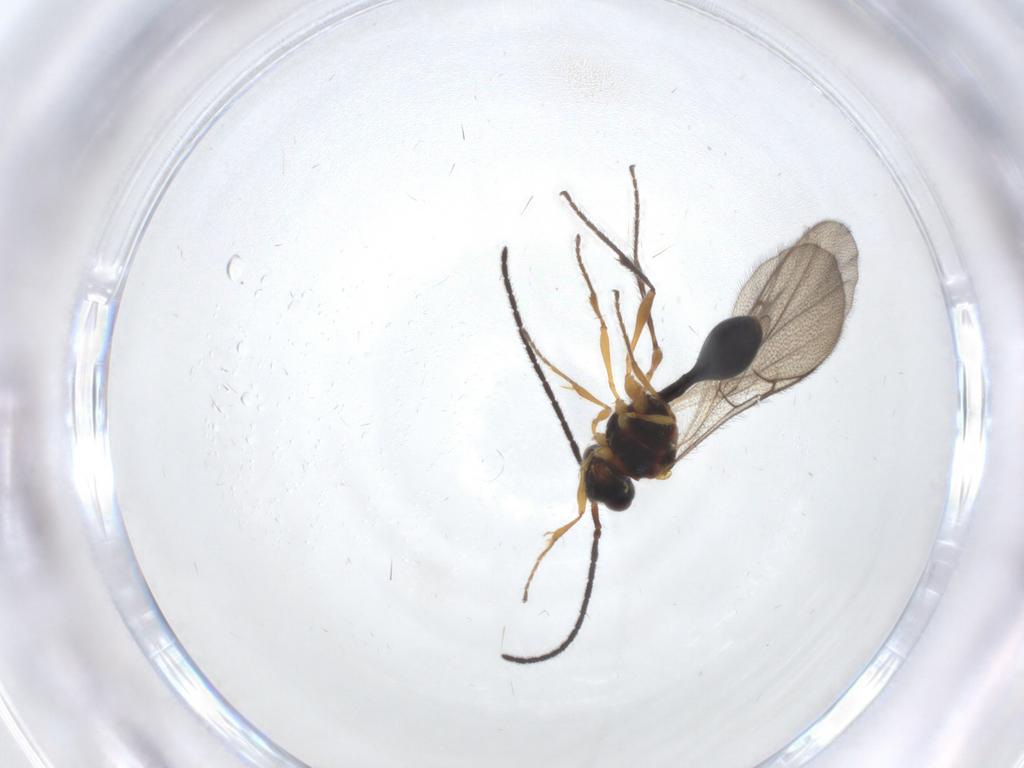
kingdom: Animalia
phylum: Arthropoda
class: Insecta
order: Hymenoptera
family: Diapriidae
